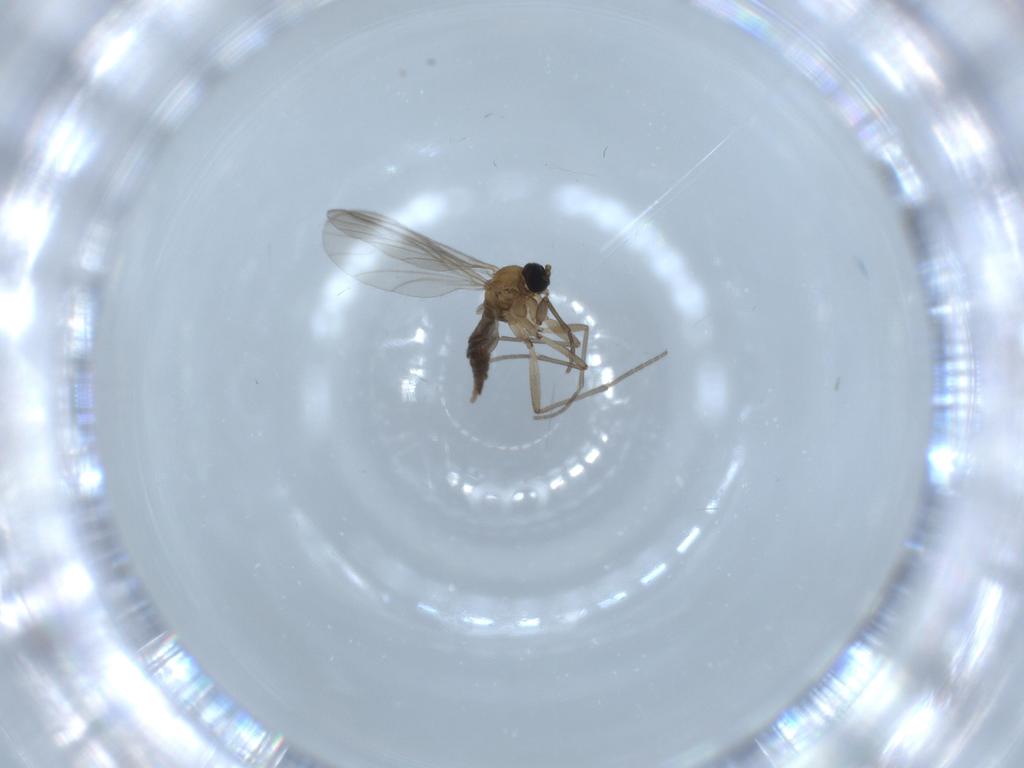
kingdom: Animalia
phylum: Arthropoda
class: Insecta
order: Diptera
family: Sciaridae
